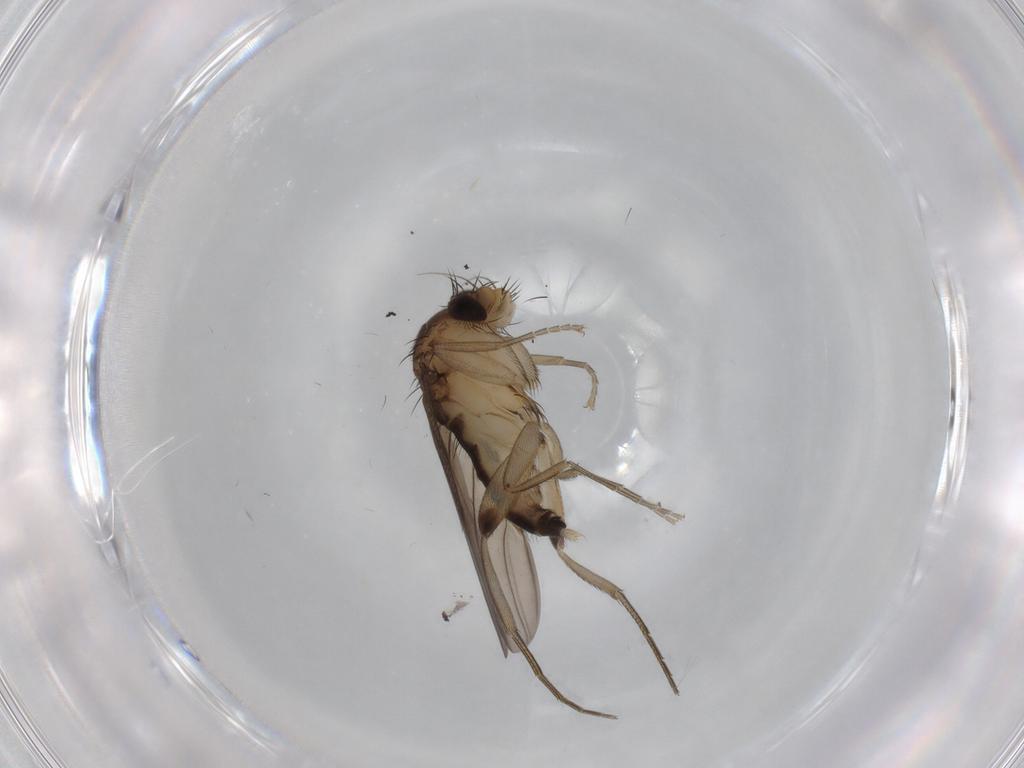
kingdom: Animalia
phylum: Arthropoda
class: Insecta
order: Diptera
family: Phoridae
